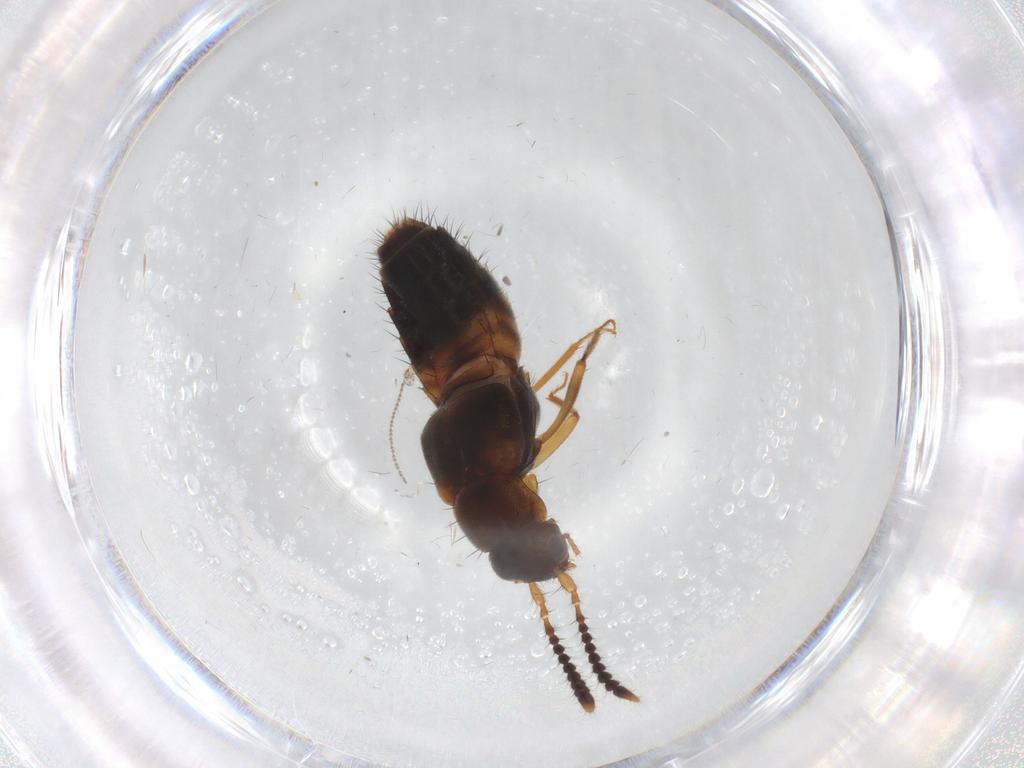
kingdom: Animalia
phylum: Arthropoda
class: Insecta
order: Coleoptera
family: Staphylinidae
